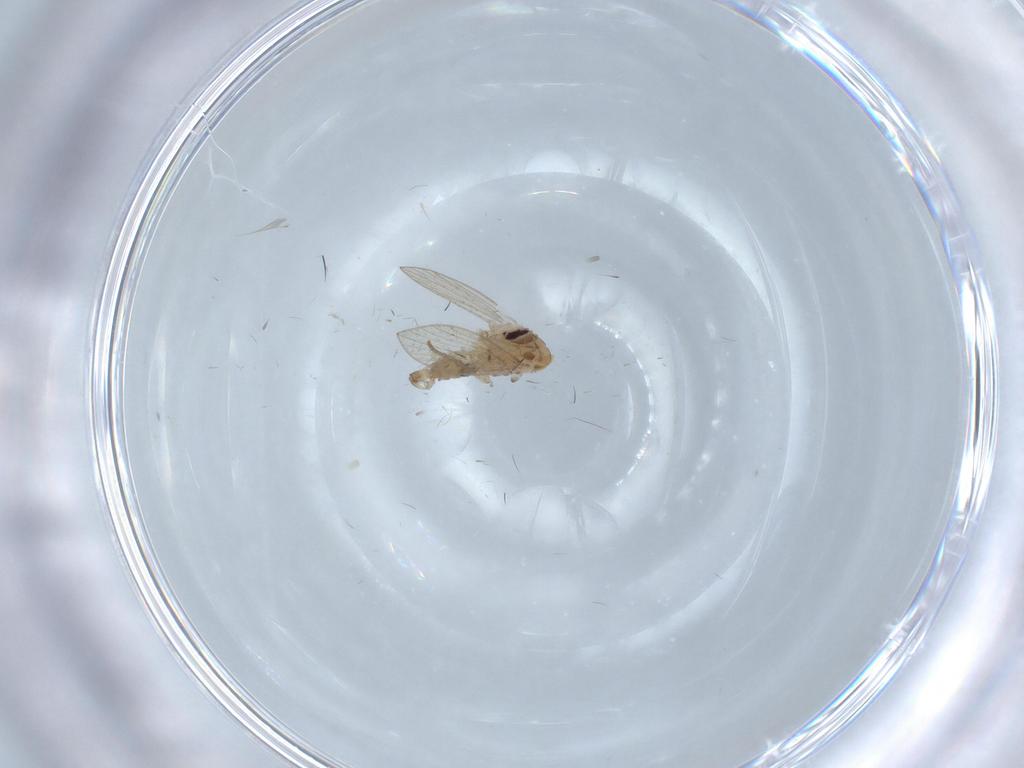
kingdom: Animalia
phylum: Arthropoda
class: Insecta
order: Diptera
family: Psychodidae
